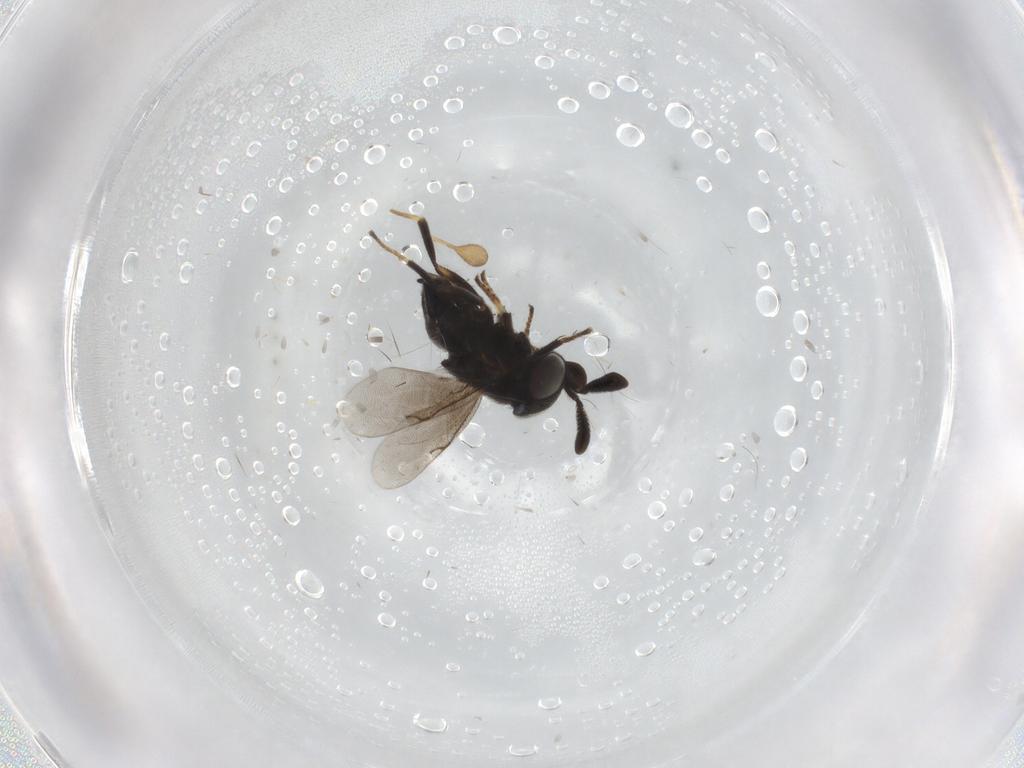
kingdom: Animalia
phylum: Arthropoda
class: Insecta
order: Hymenoptera
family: Encyrtidae
